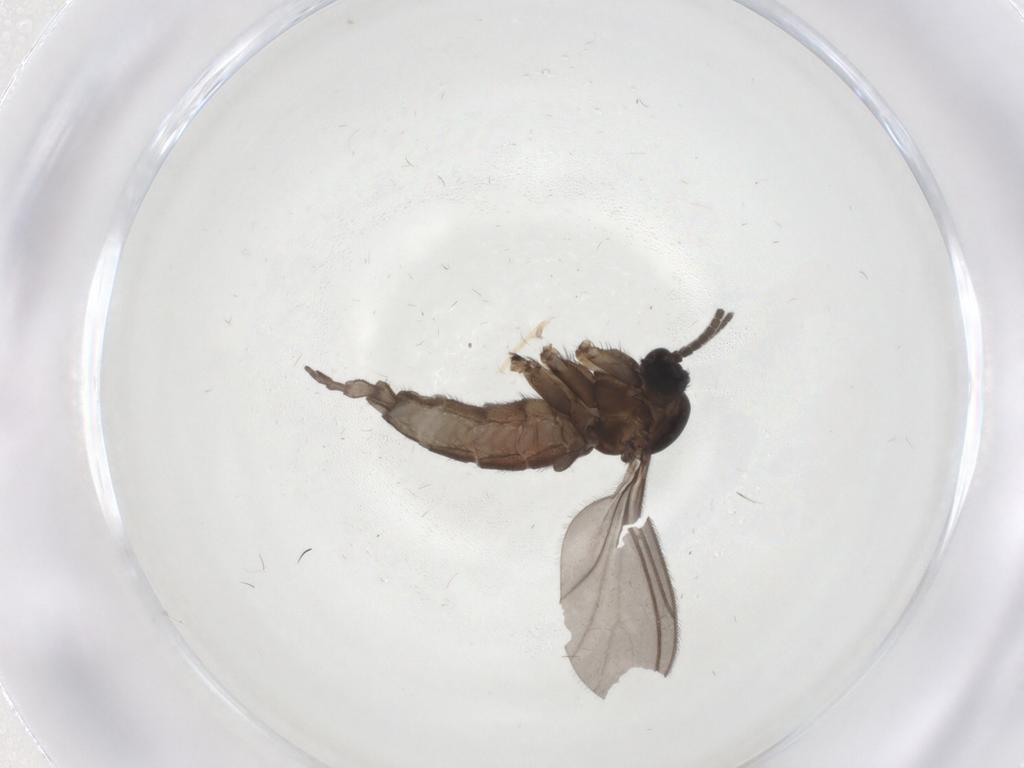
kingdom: Animalia
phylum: Arthropoda
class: Insecta
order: Diptera
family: Sciaridae
